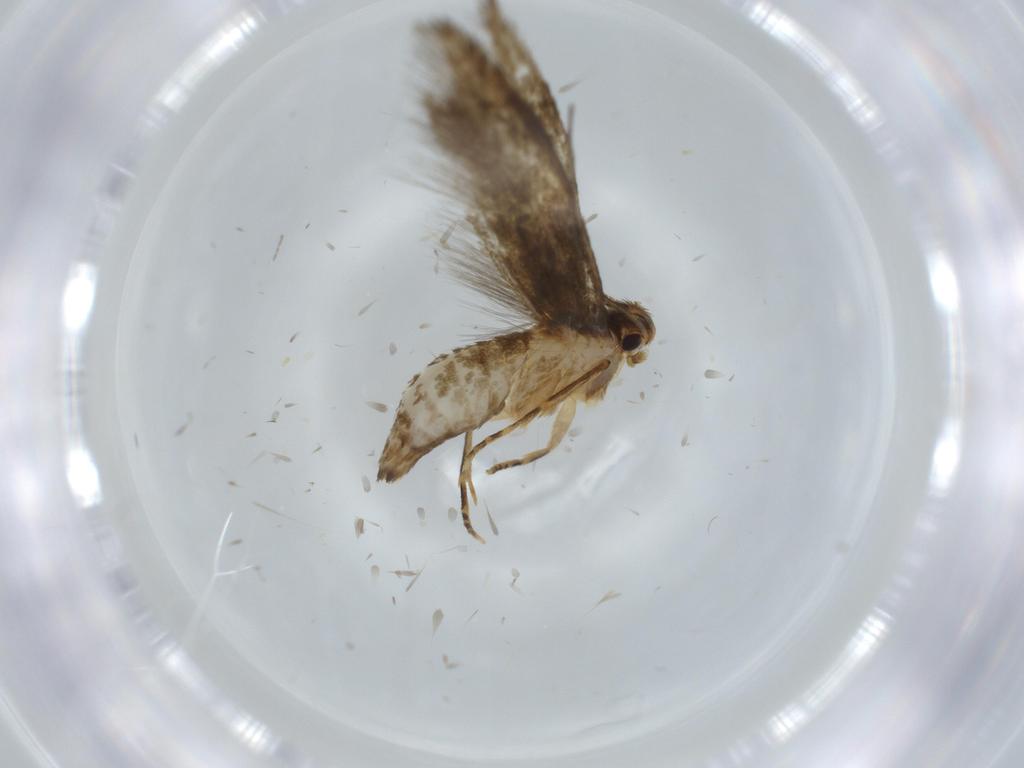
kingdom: Animalia
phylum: Arthropoda
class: Insecta
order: Lepidoptera
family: Tineidae
